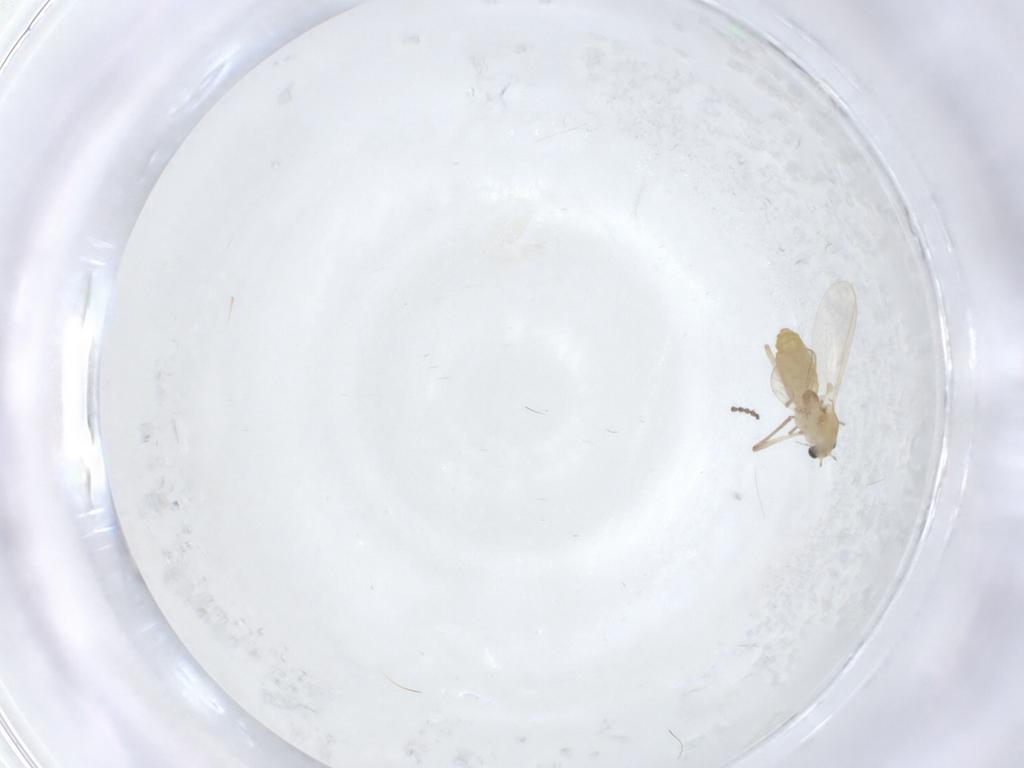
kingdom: Animalia
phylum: Arthropoda
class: Insecta
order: Diptera
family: Cecidomyiidae
